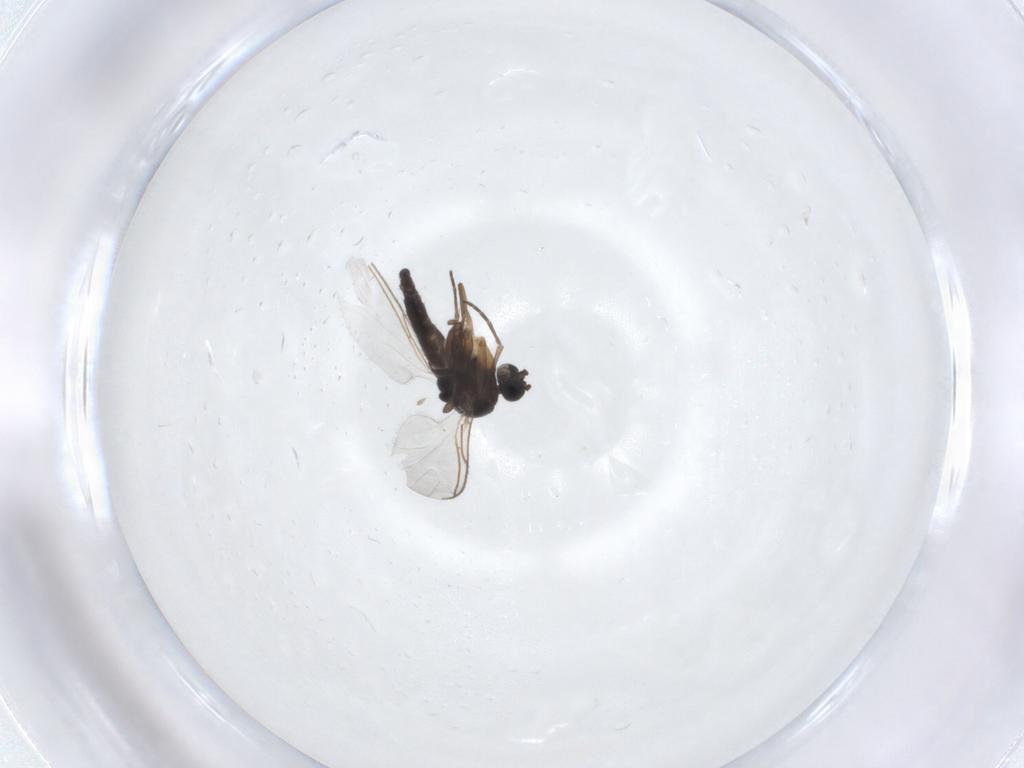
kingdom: Animalia
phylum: Arthropoda
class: Insecta
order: Diptera
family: Sciaridae
